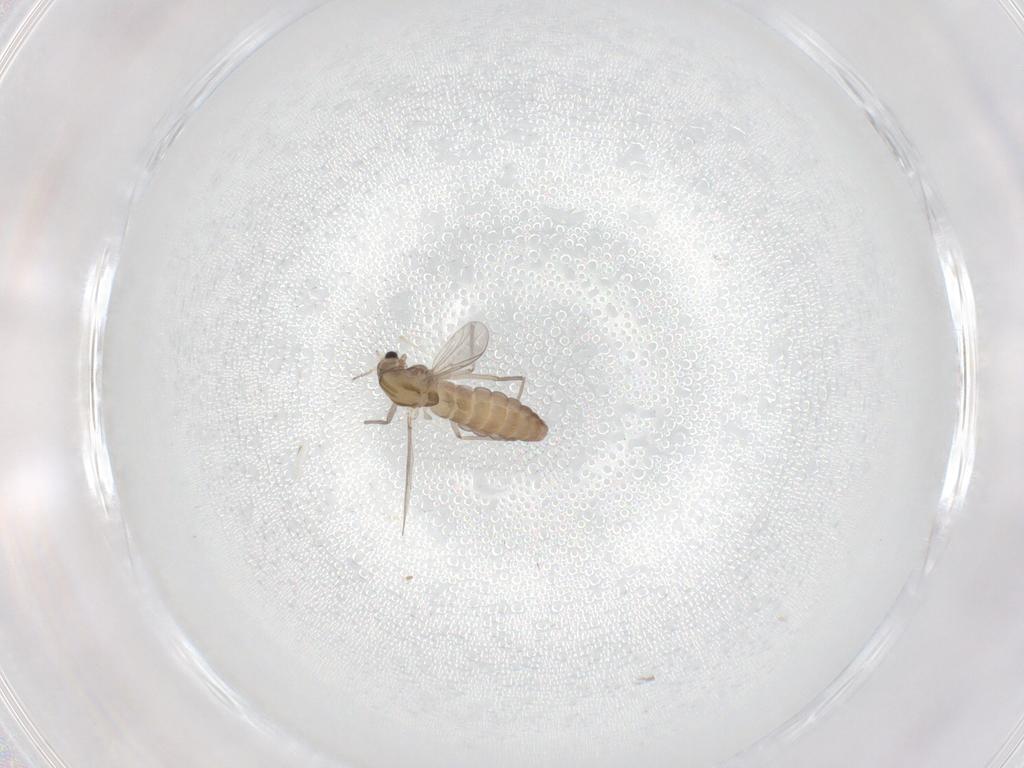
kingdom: Animalia
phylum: Arthropoda
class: Insecta
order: Diptera
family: Chironomidae
